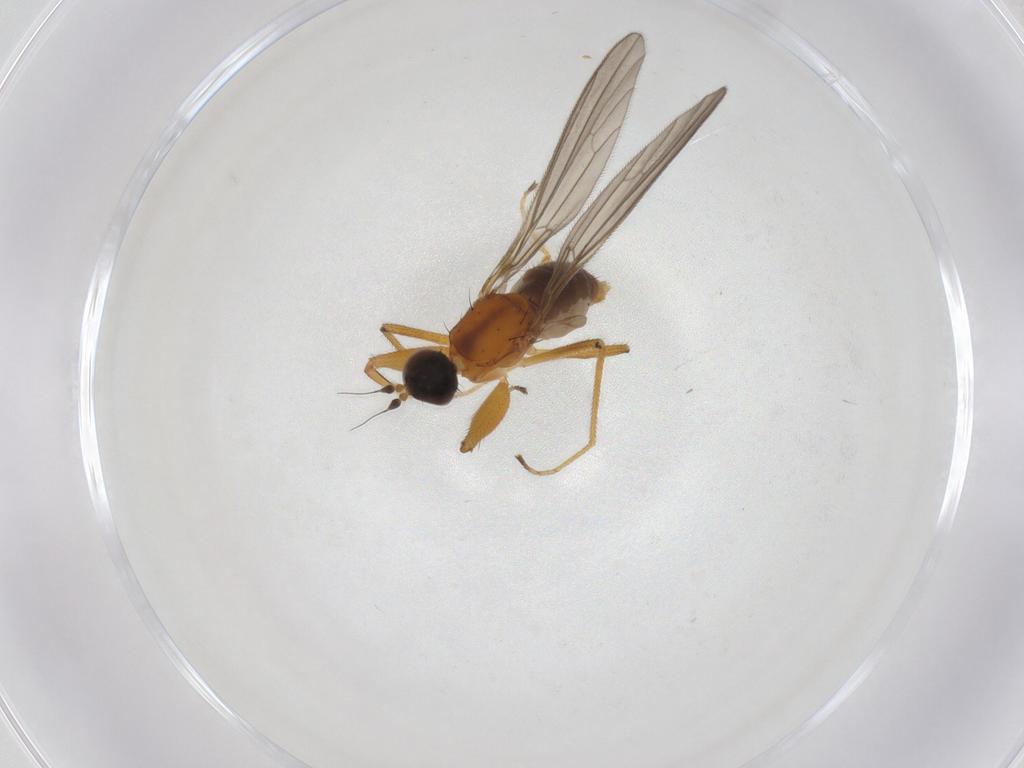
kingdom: Animalia
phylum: Arthropoda
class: Insecta
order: Diptera
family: Empididae
